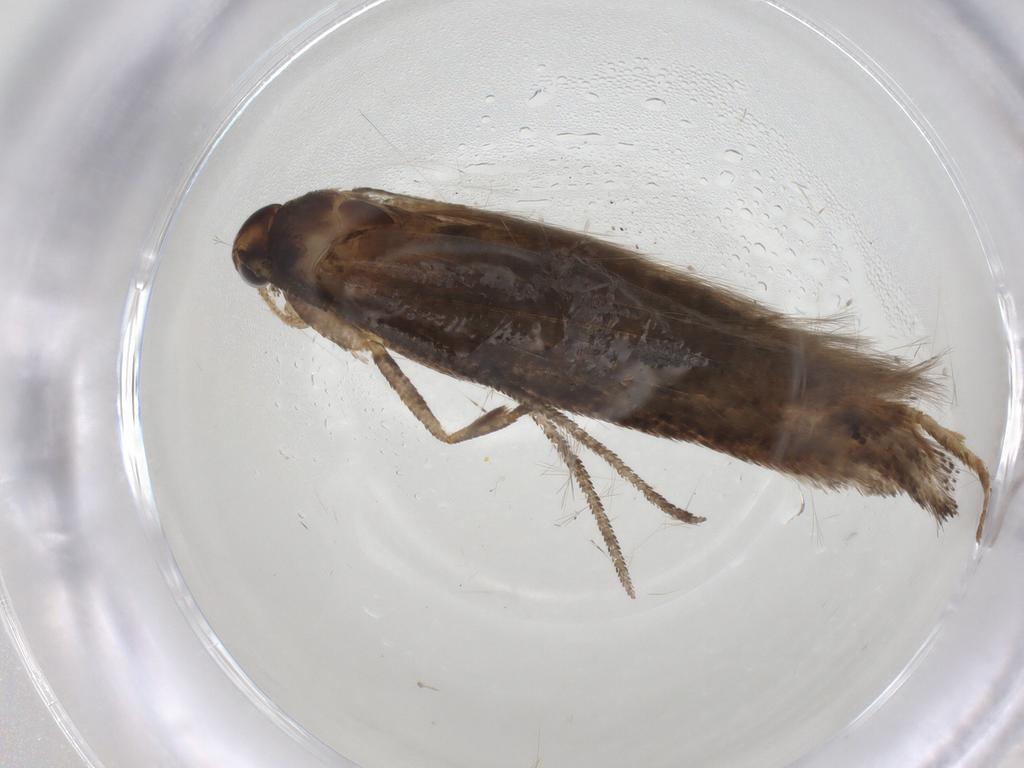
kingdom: Animalia
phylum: Arthropoda
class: Insecta
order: Lepidoptera
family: Momphidae
